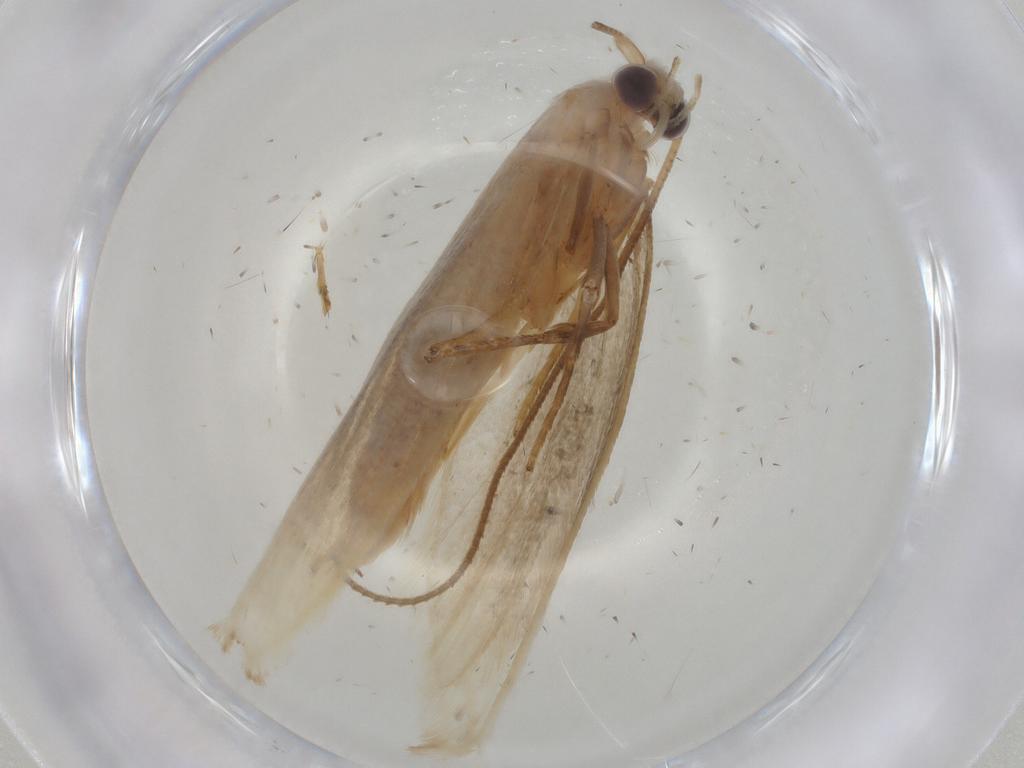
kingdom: Animalia
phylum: Arthropoda
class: Insecta
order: Lepidoptera
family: Gelechiidae
